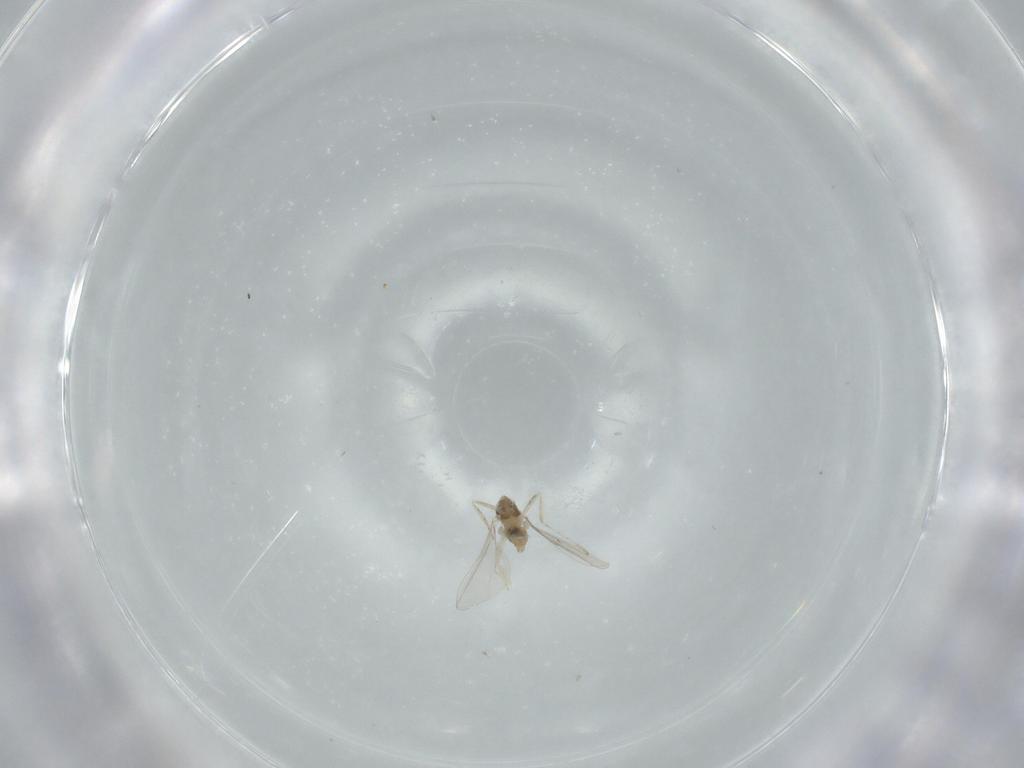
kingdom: Animalia
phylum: Arthropoda
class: Insecta
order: Diptera
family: Cecidomyiidae
